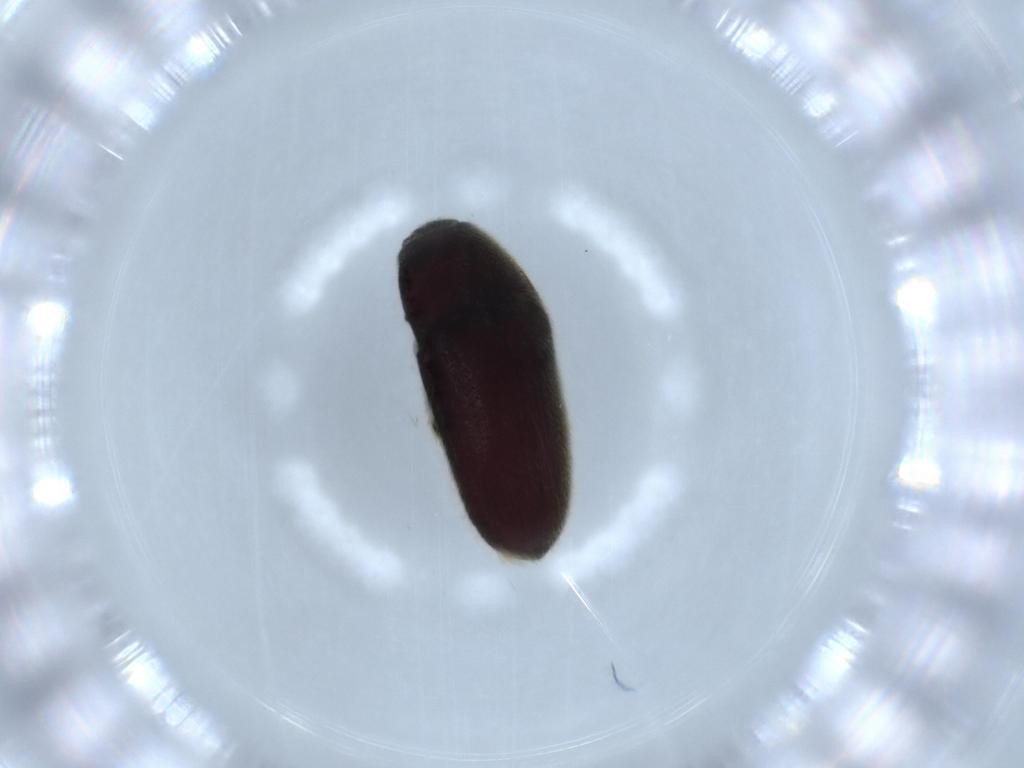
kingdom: Animalia
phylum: Arthropoda
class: Insecta
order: Coleoptera
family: Throscidae
